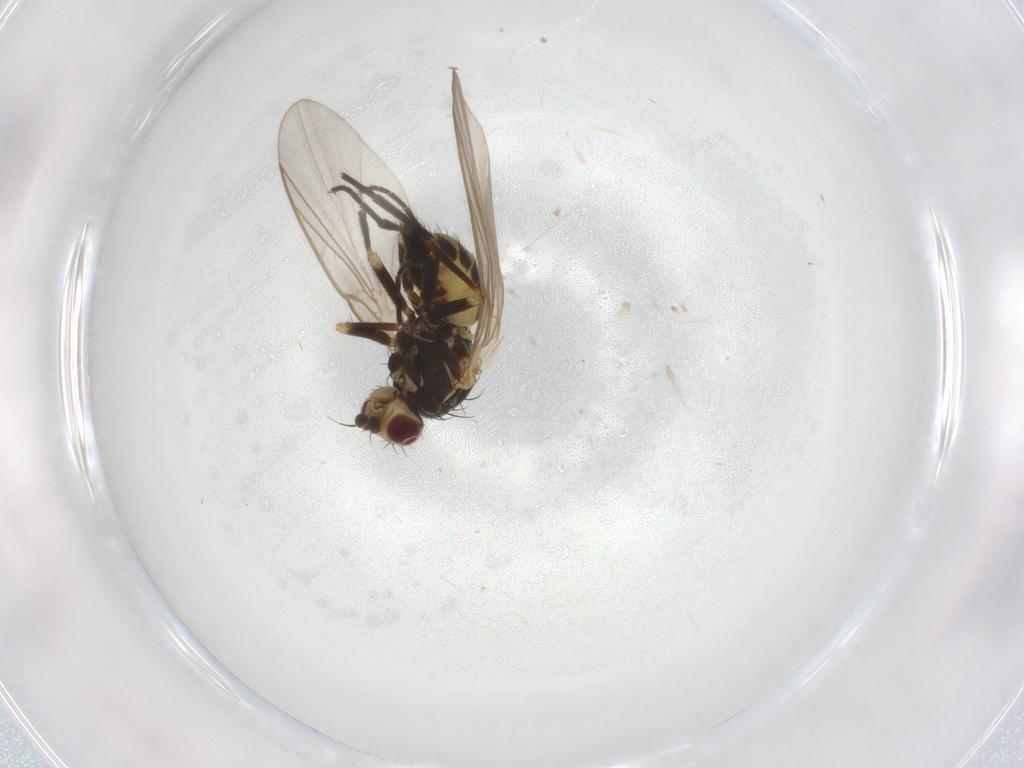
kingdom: Animalia
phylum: Arthropoda
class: Insecta
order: Diptera
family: Agromyzidae
